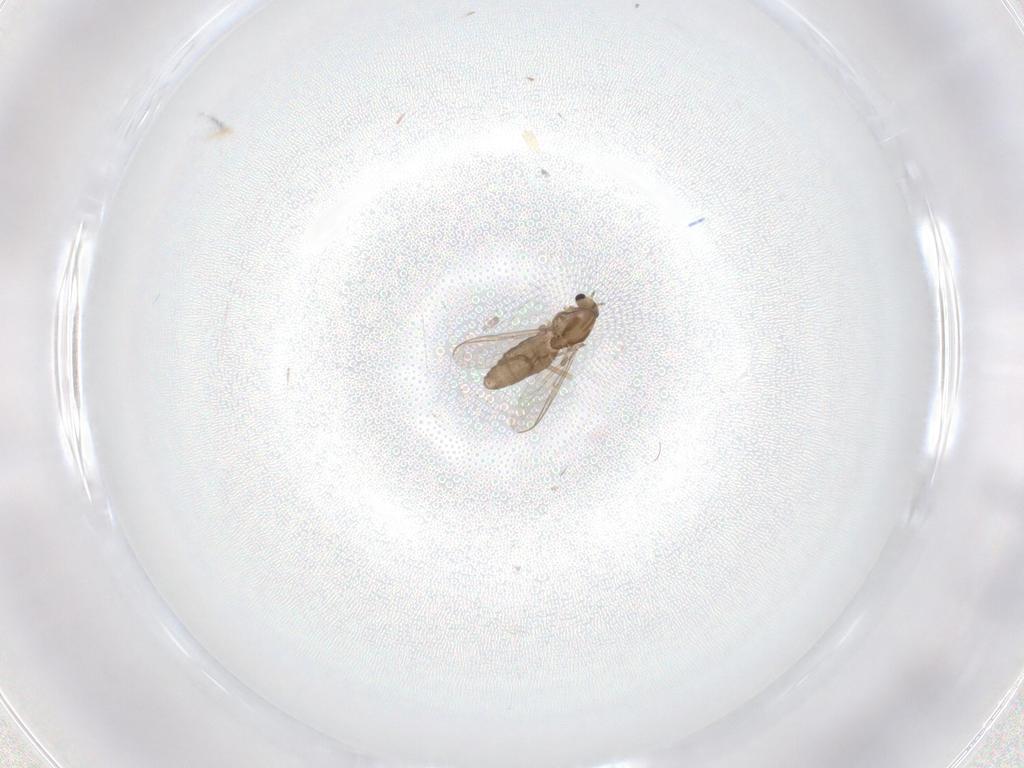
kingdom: Animalia
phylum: Arthropoda
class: Insecta
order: Diptera
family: Chironomidae
